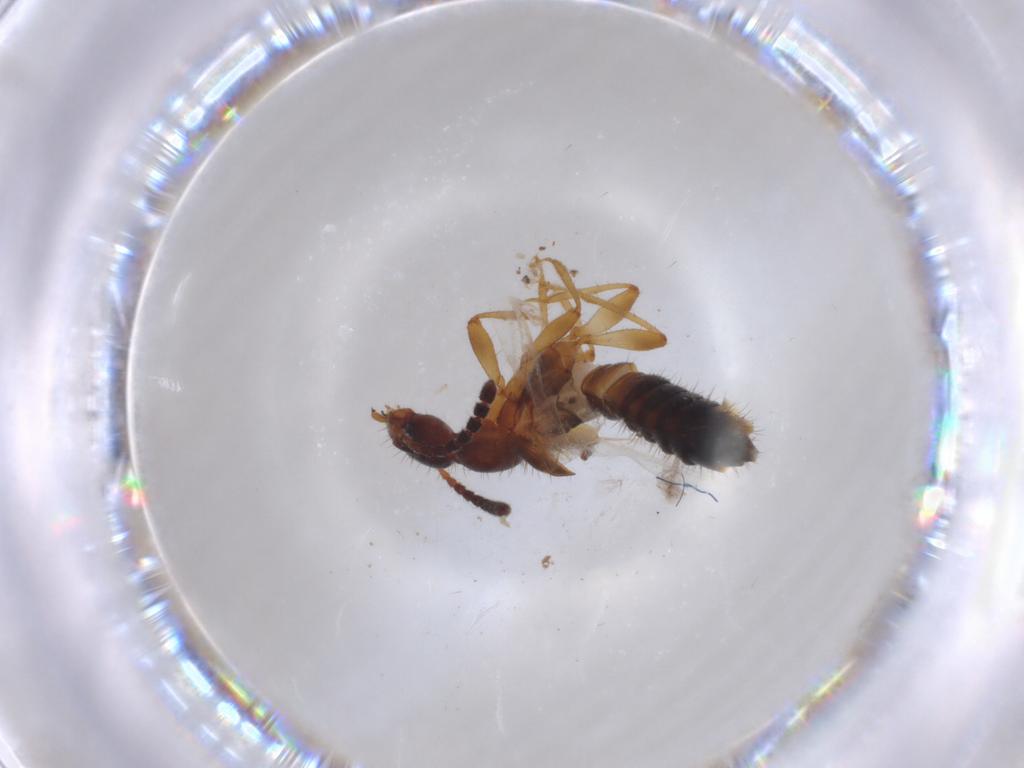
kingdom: Animalia
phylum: Arthropoda
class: Insecta
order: Coleoptera
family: Staphylinidae
